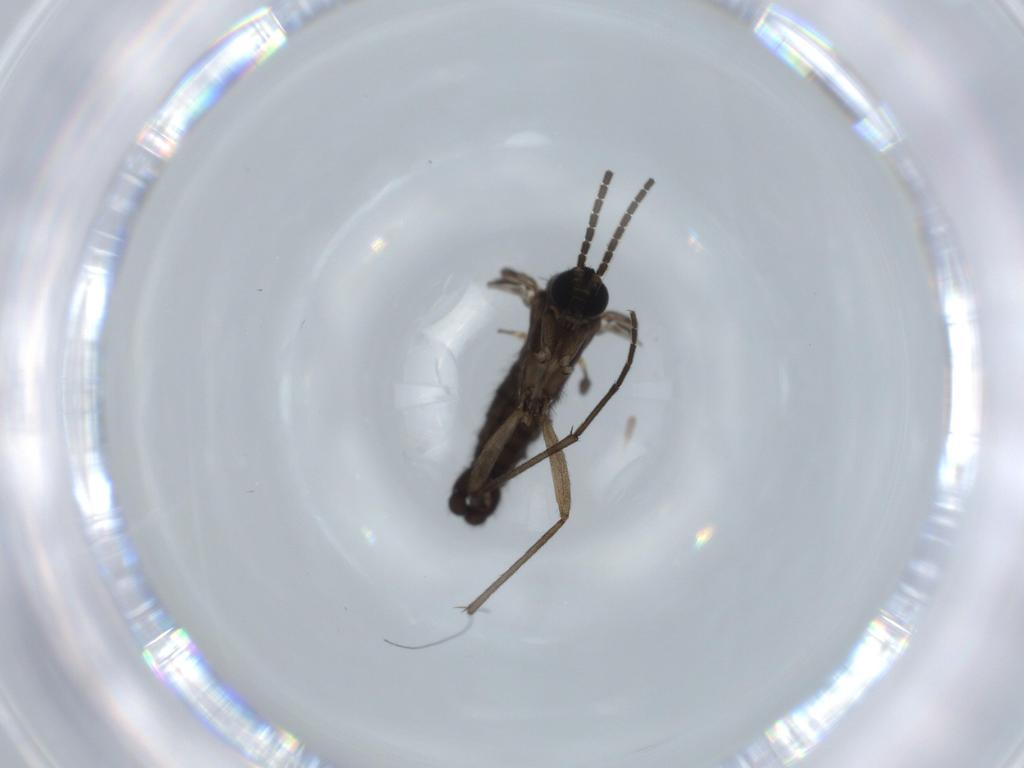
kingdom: Animalia
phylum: Arthropoda
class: Insecta
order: Diptera
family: Sciaridae
